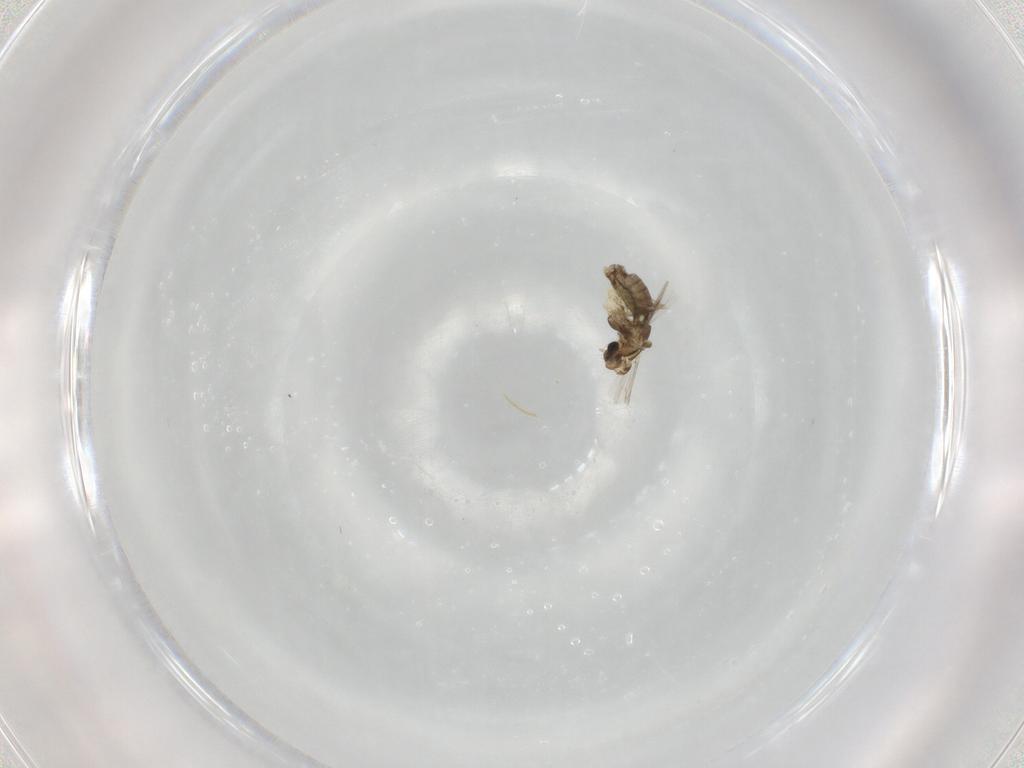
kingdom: Animalia
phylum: Arthropoda
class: Insecta
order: Diptera
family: Chironomidae
